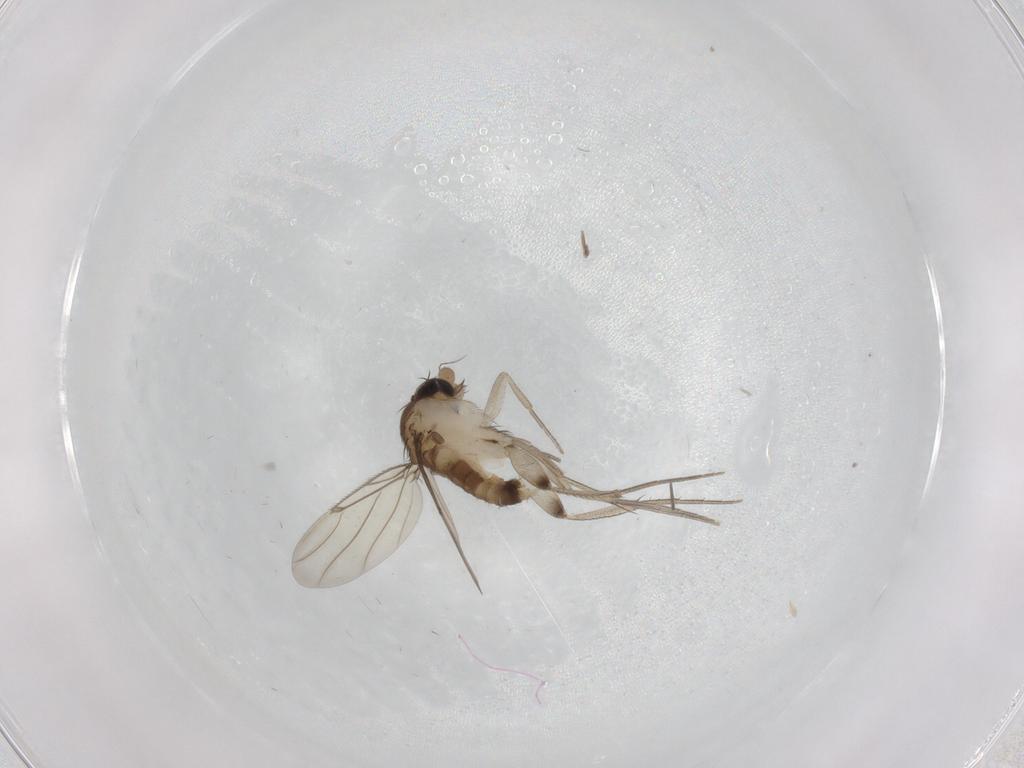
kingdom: Animalia
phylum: Arthropoda
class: Insecta
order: Diptera
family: Sciaridae
